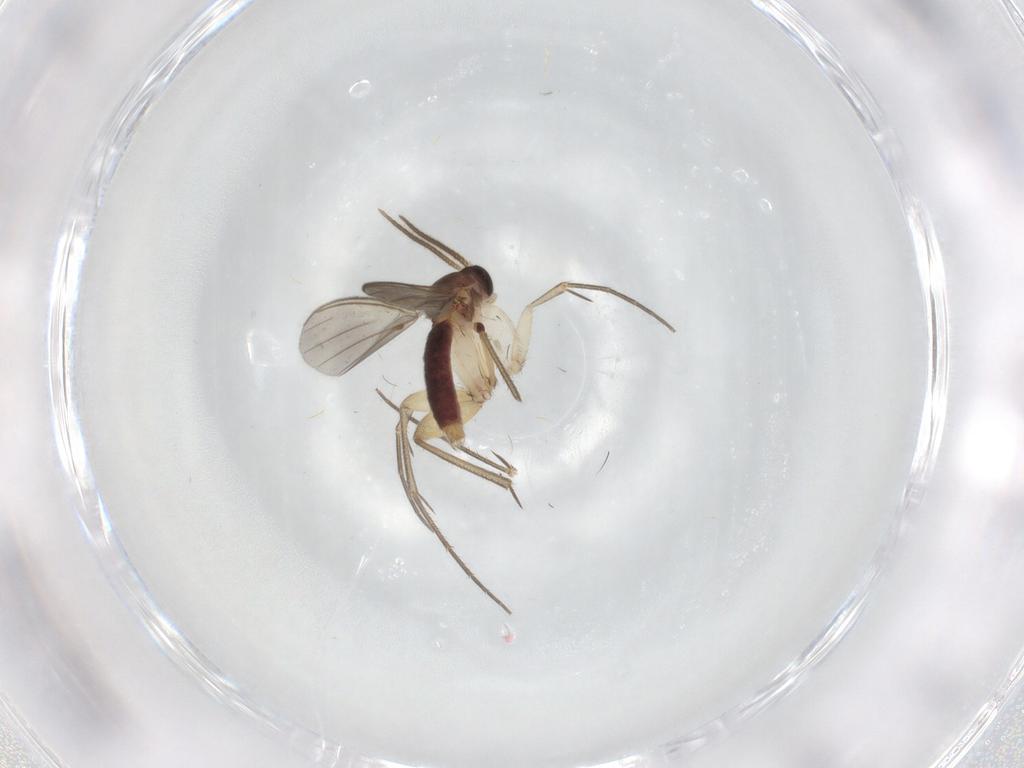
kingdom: Animalia
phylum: Arthropoda
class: Insecta
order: Diptera
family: Mycetophilidae
